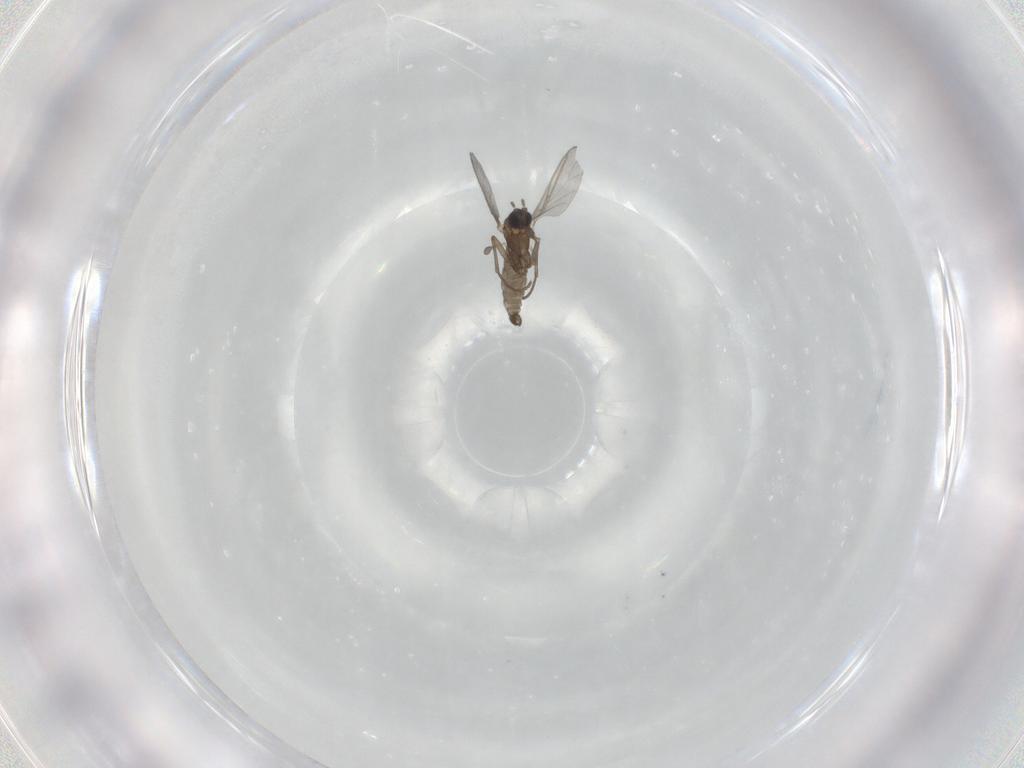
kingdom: Animalia
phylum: Arthropoda
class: Insecta
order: Diptera
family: Sciaridae
